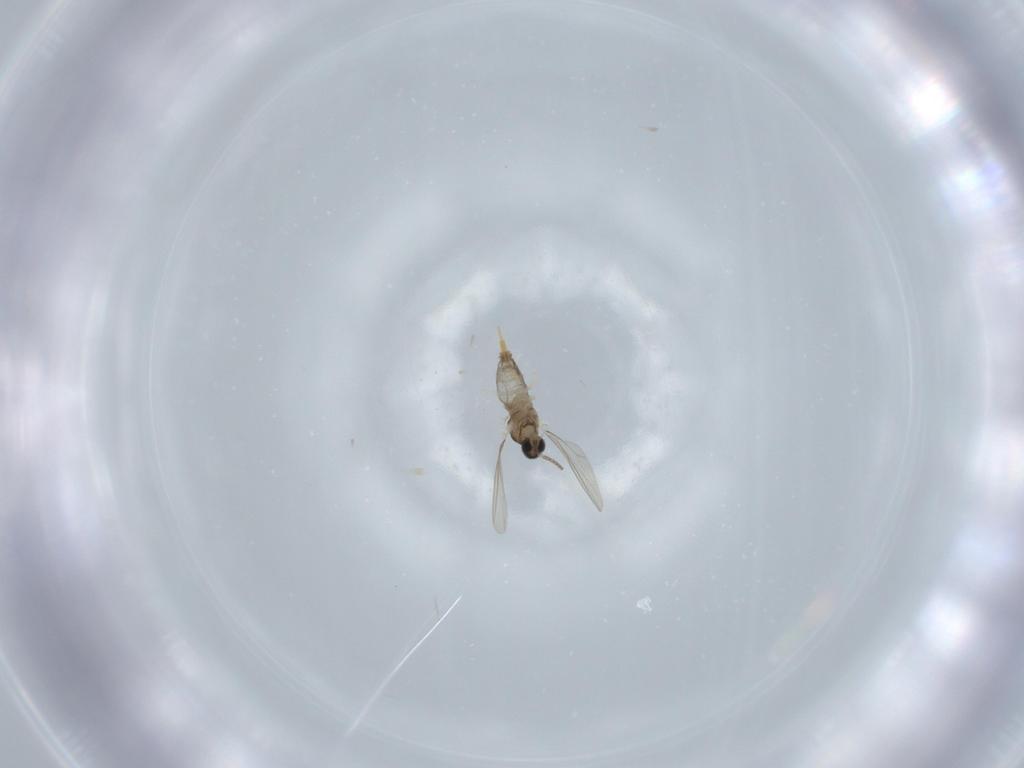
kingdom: Animalia
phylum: Arthropoda
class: Insecta
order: Diptera
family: Cecidomyiidae
